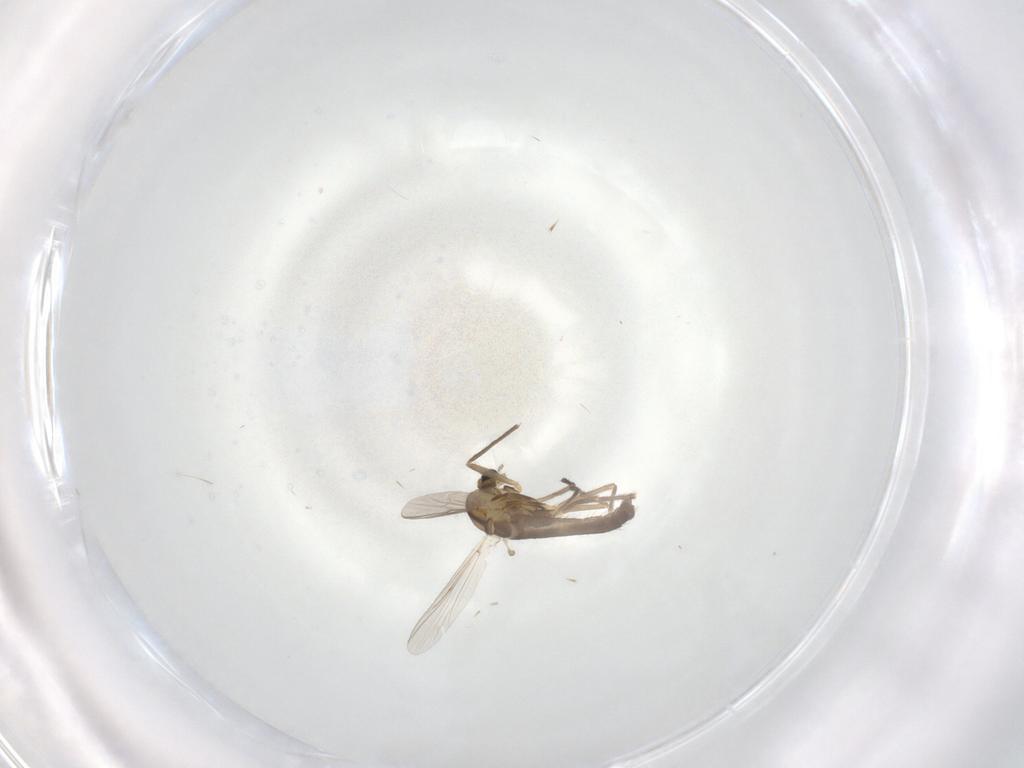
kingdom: Animalia
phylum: Arthropoda
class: Insecta
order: Diptera
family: Chironomidae
